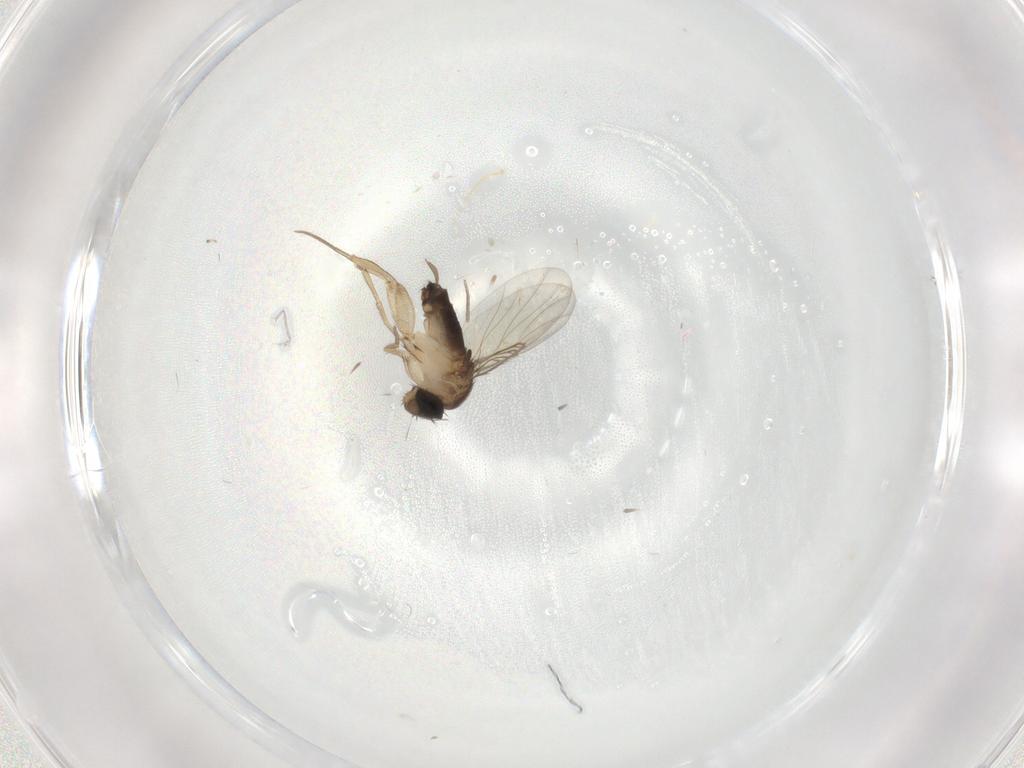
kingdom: Animalia
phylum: Arthropoda
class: Insecta
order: Diptera
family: Phoridae
